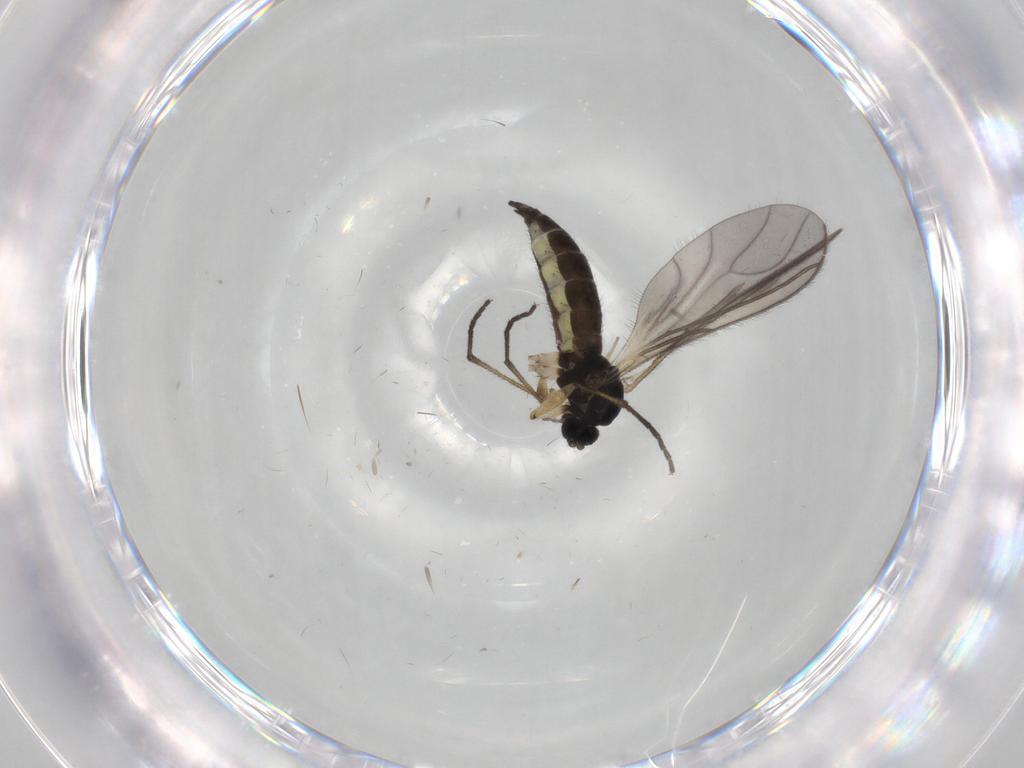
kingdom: Animalia
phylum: Arthropoda
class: Insecta
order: Diptera
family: Sciaridae
